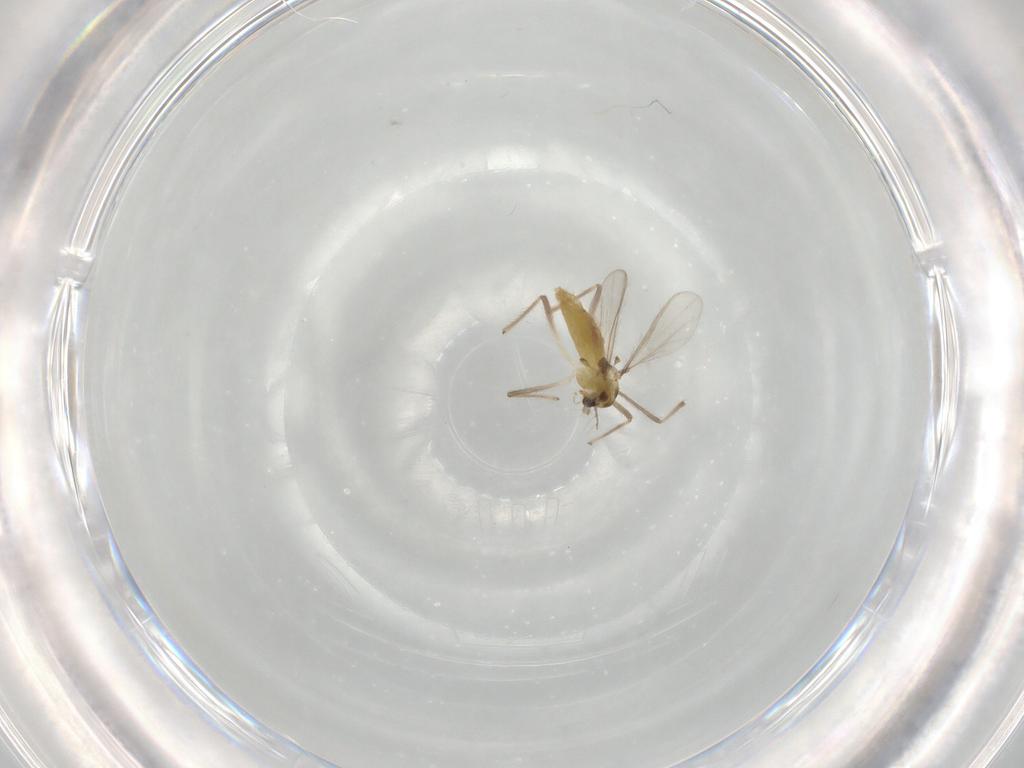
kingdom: Animalia
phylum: Arthropoda
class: Insecta
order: Diptera
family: Chironomidae
